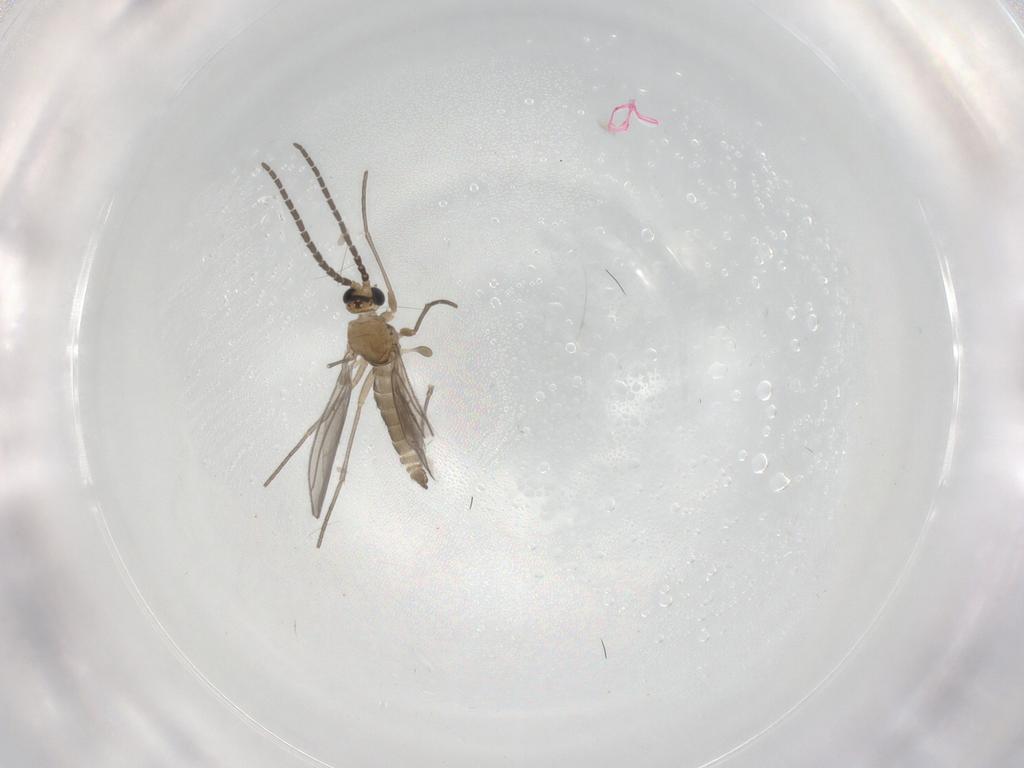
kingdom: Animalia
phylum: Arthropoda
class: Insecta
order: Diptera
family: Sciaridae
